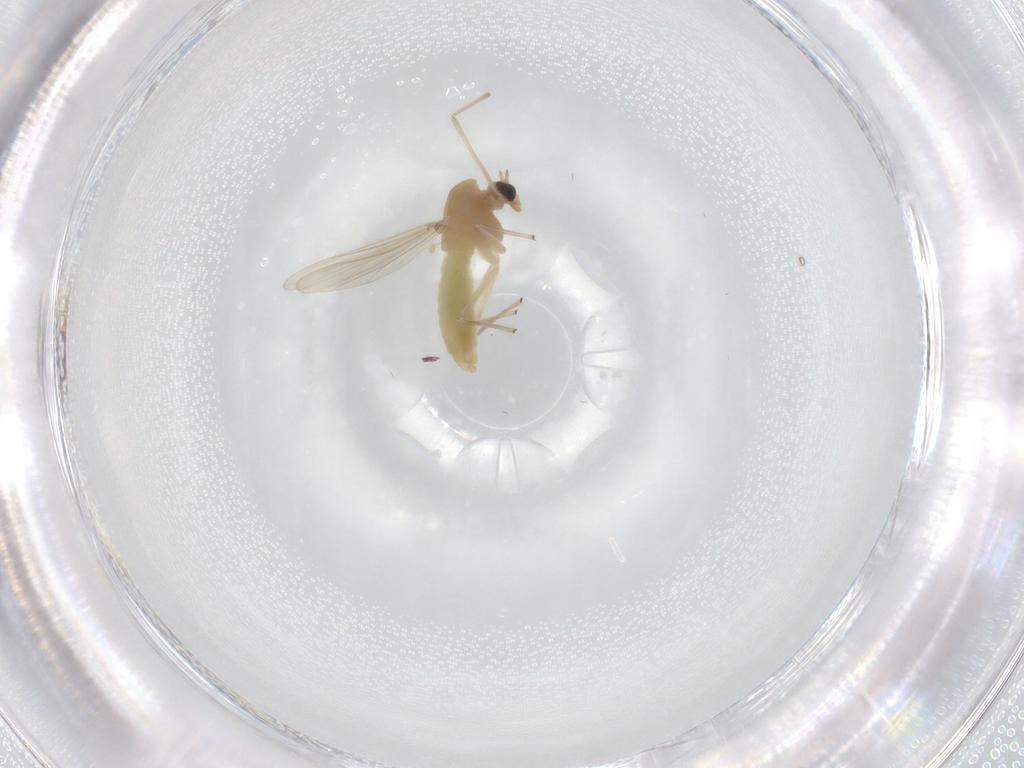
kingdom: Animalia
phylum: Arthropoda
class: Insecta
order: Diptera
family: Chironomidae
